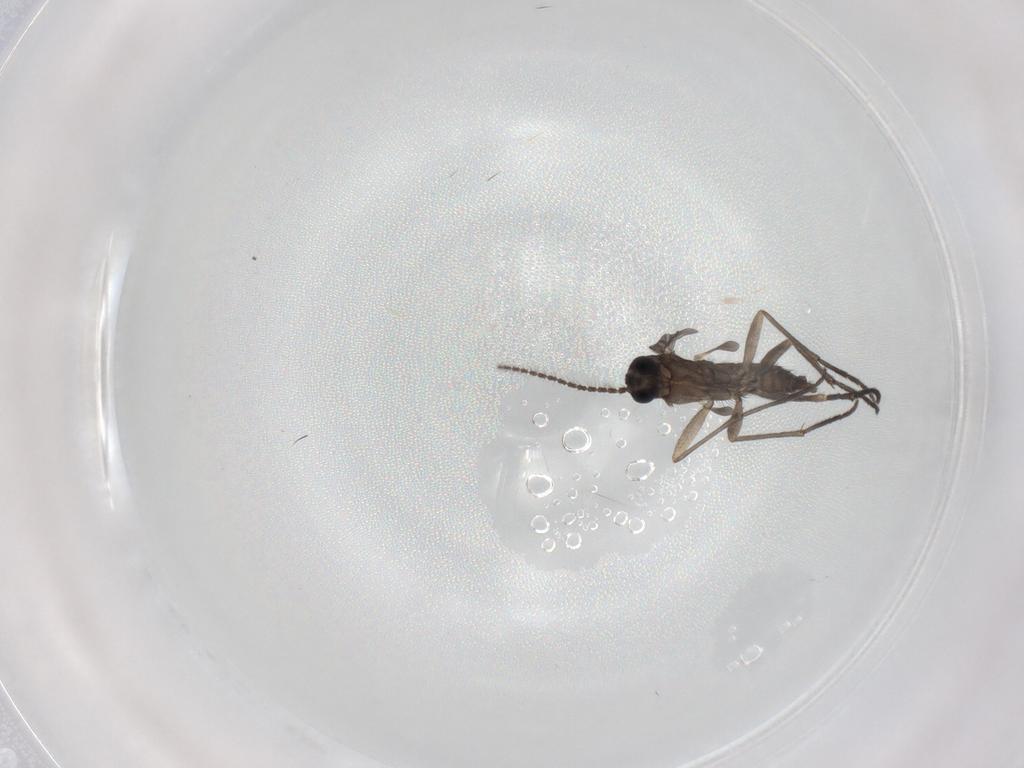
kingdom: Animalia
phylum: Arthropoda
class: Insecta
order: Diptera
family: Sciaridae
